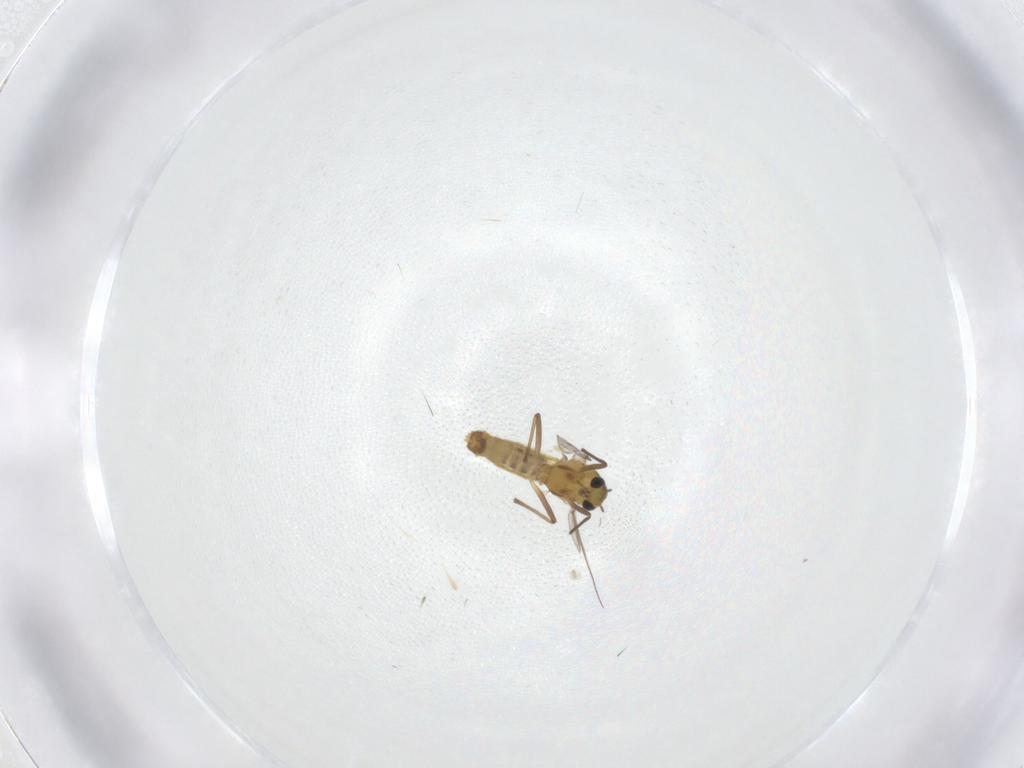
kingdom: Animalia
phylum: Arthropoda
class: Insecta
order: Diptera
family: Chironomidae
